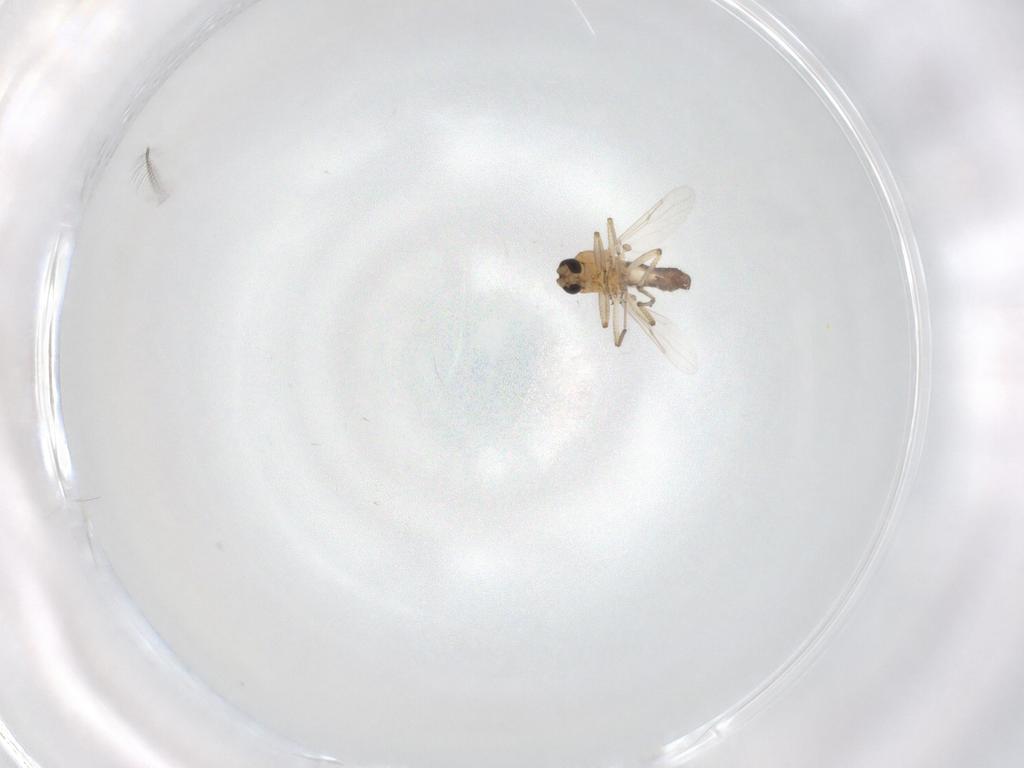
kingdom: Animalia
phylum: Arthropoda
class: Insecta
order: Diptera
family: Ceratopogonidae
